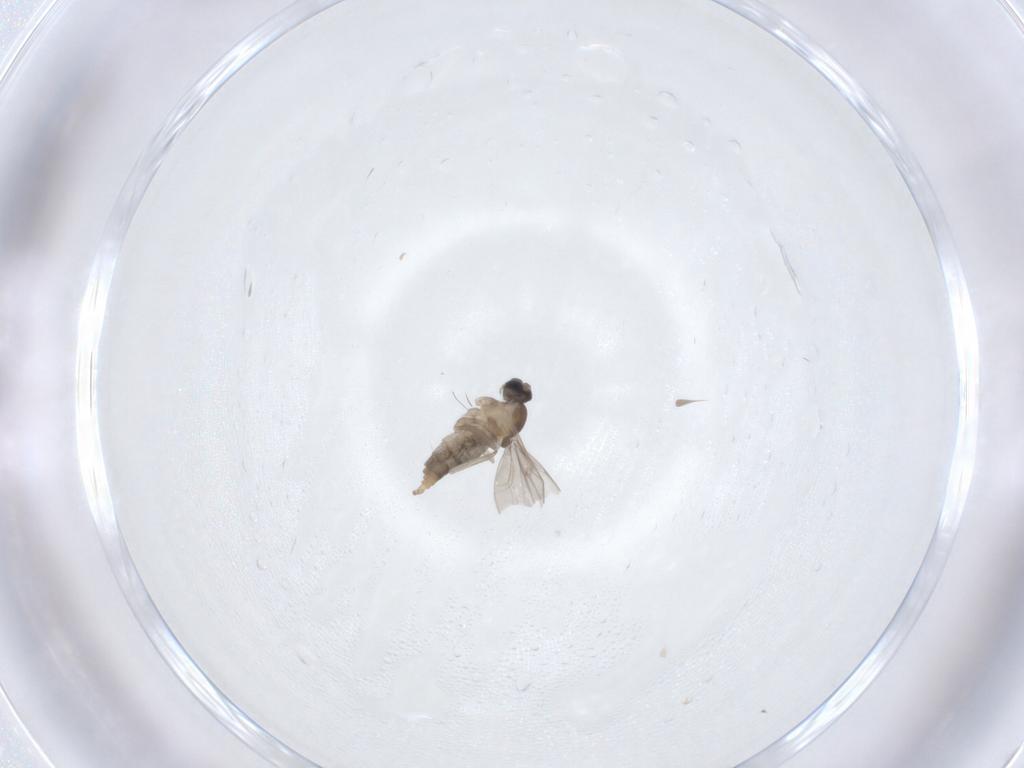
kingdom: Animalia
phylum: Arthropoda
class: Insecta
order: Diptera
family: Cecidomyiidae
